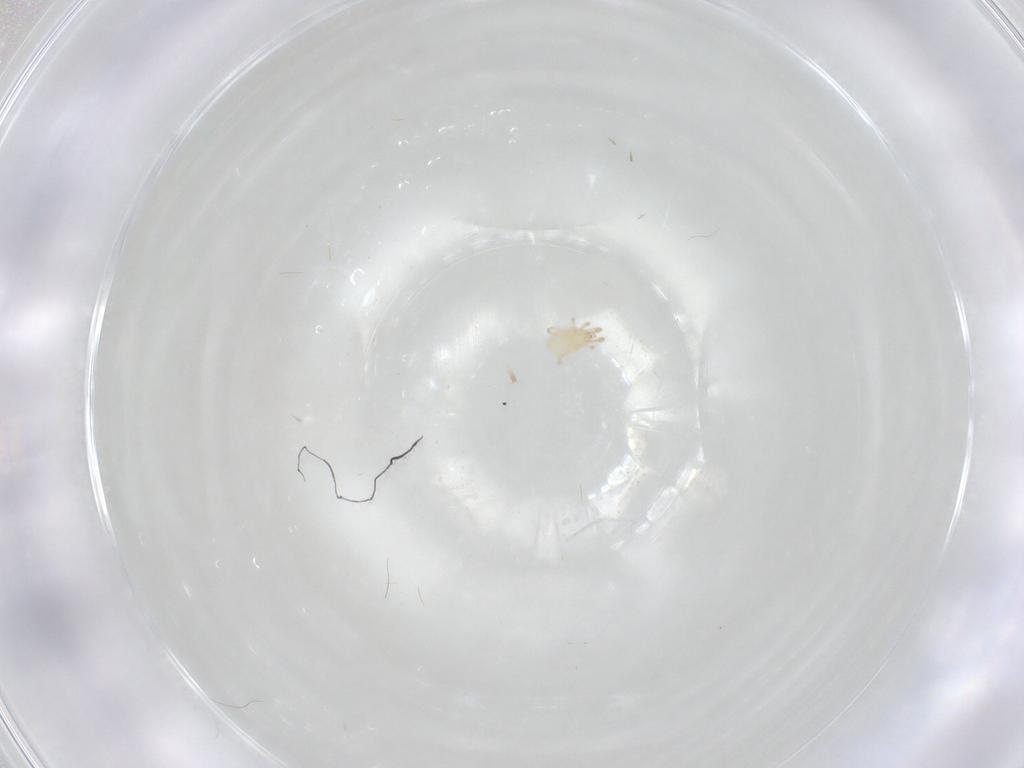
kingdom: Animalia
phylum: Arthropoda
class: Arachnida
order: Mesostigmata
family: Phytoseiidae
